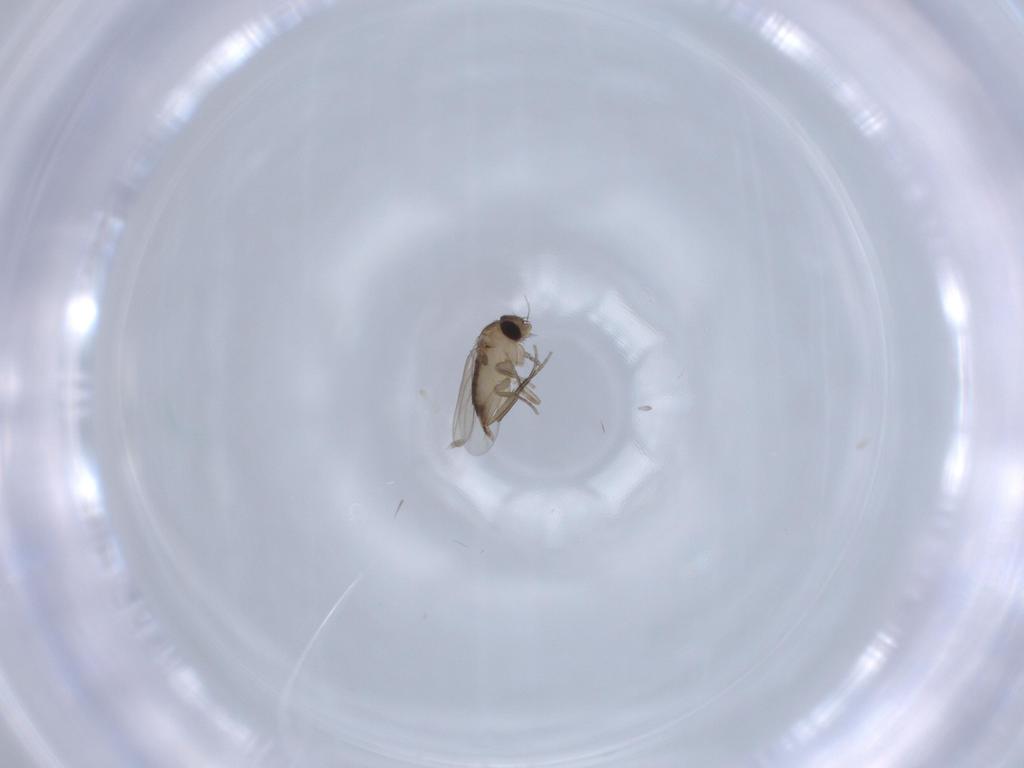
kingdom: Animalia
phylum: Arthropoda
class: Insecta
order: Diptera
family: Phoridae
